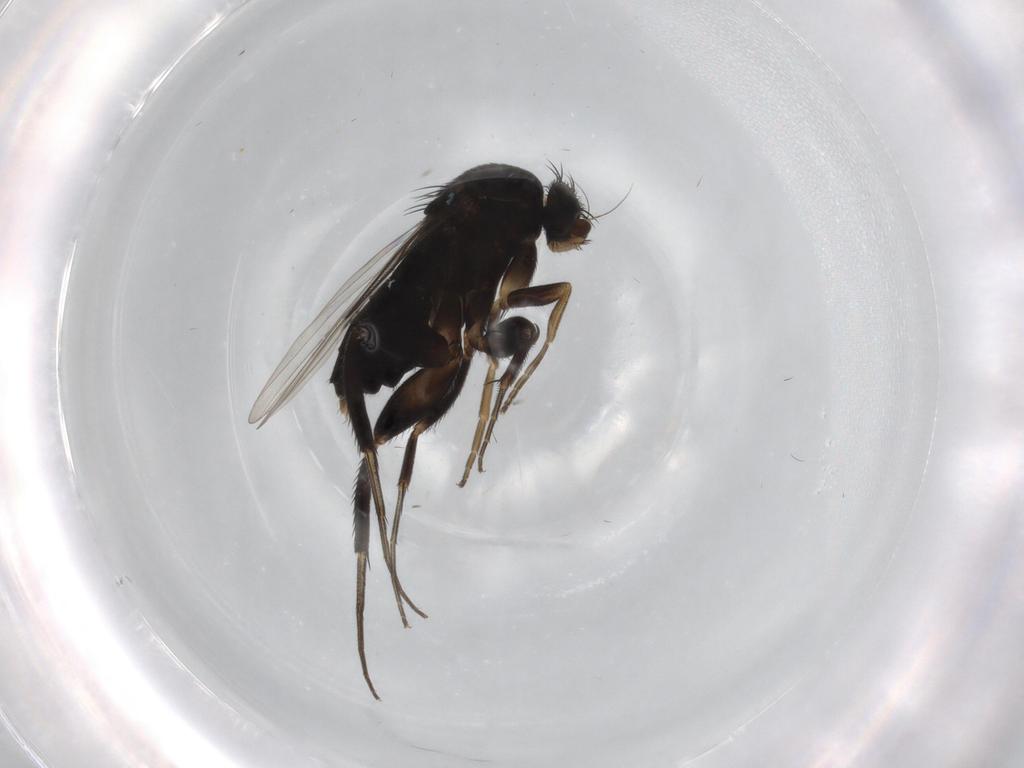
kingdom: Animalia
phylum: Arthropoda
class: Insecta
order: Diptera
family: Phoridae
